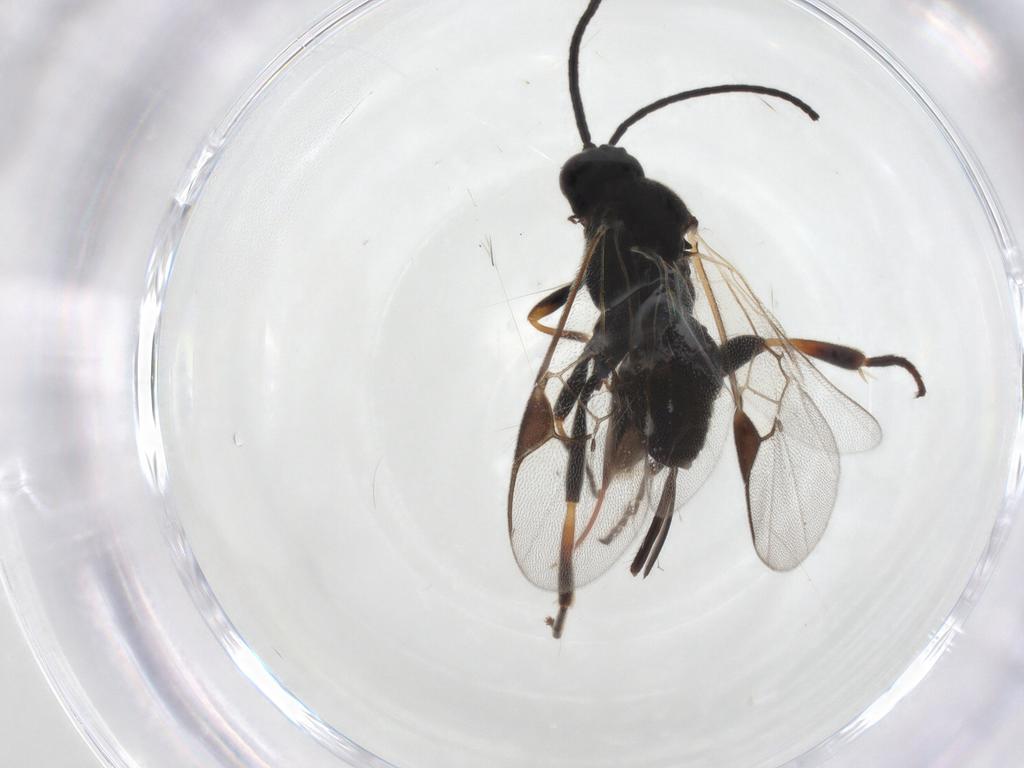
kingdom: Animalia
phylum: Arthropoda
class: Insecta
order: Hymenoptera
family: Braconidae
